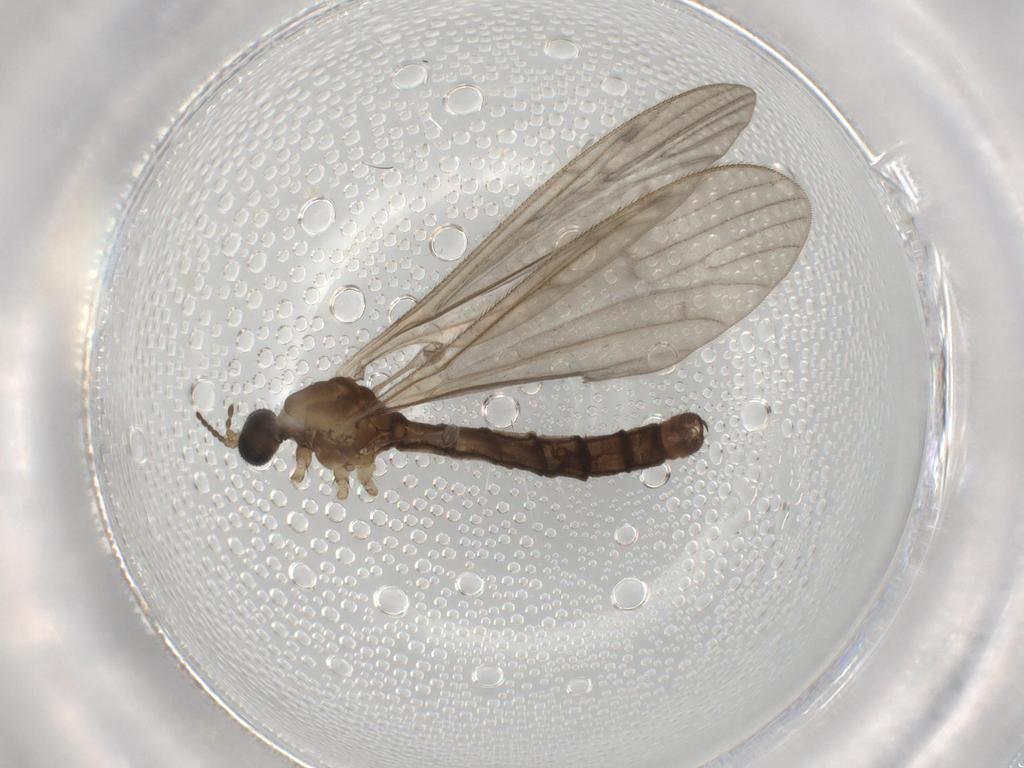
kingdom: Animalia
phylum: Arthropoda
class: Insecta
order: Diptera
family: Limoniidae
